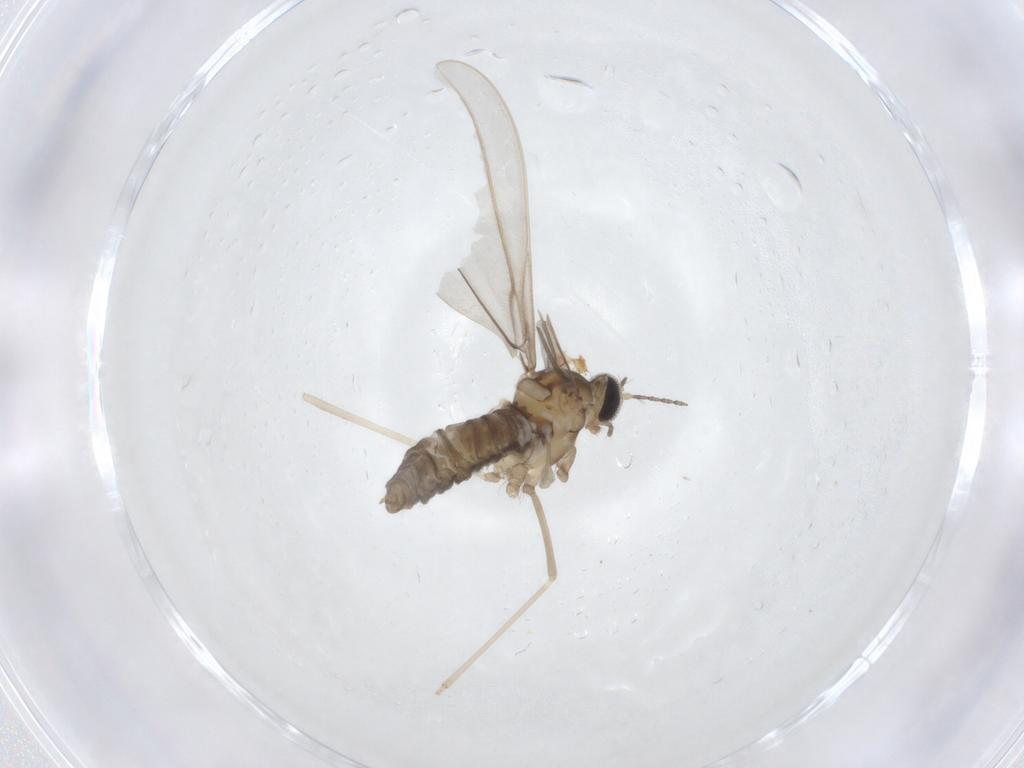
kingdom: Animalia
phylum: Arthropoda
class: Insecta
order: Diptera
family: Cecidomyiidae
